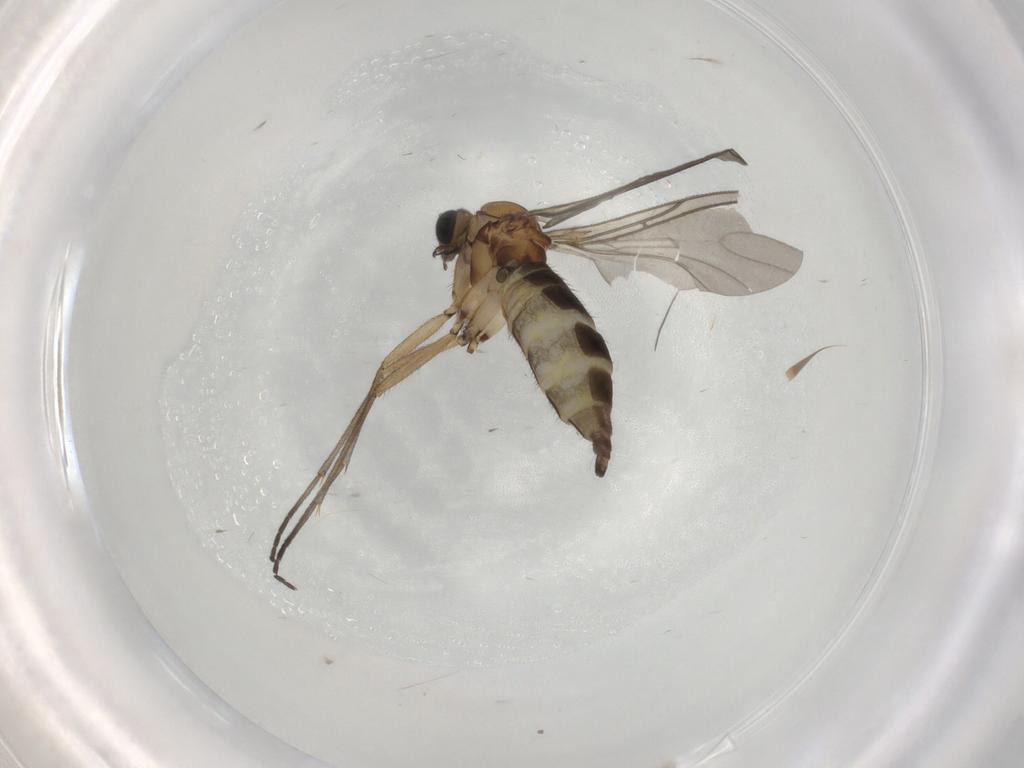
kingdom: Animalia
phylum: Arthropoda
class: Insecta
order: Diptera
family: Sciaridae
